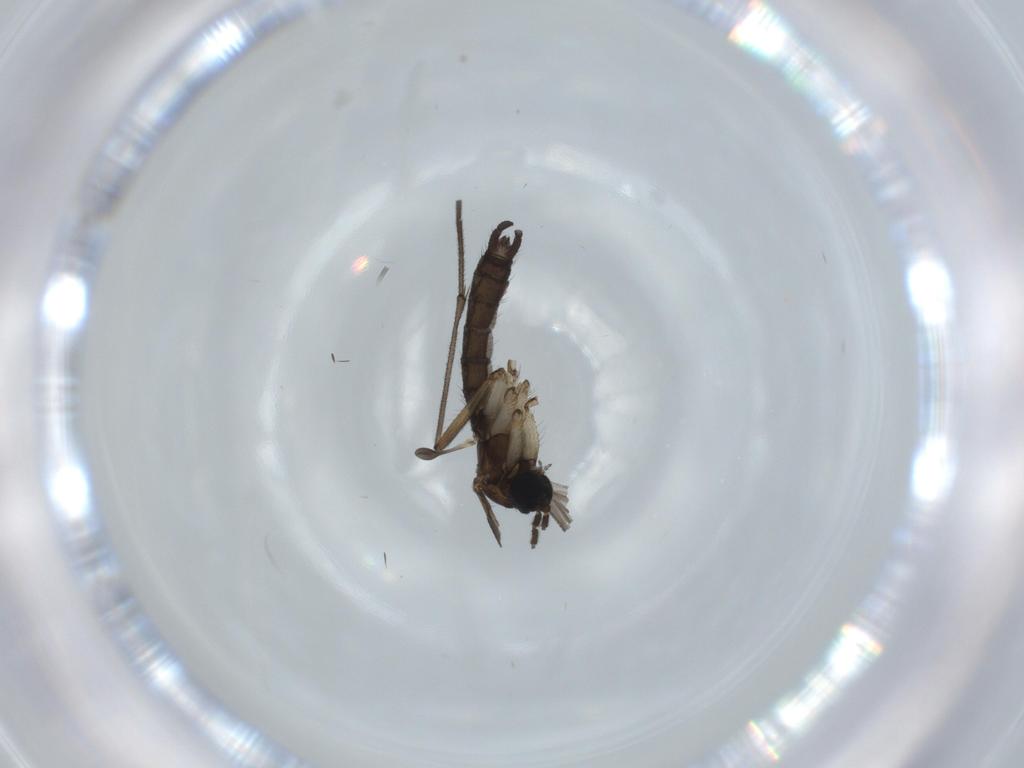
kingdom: Animalia
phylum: Arthropoda
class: Insecta
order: Diptera
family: Sciaridae
